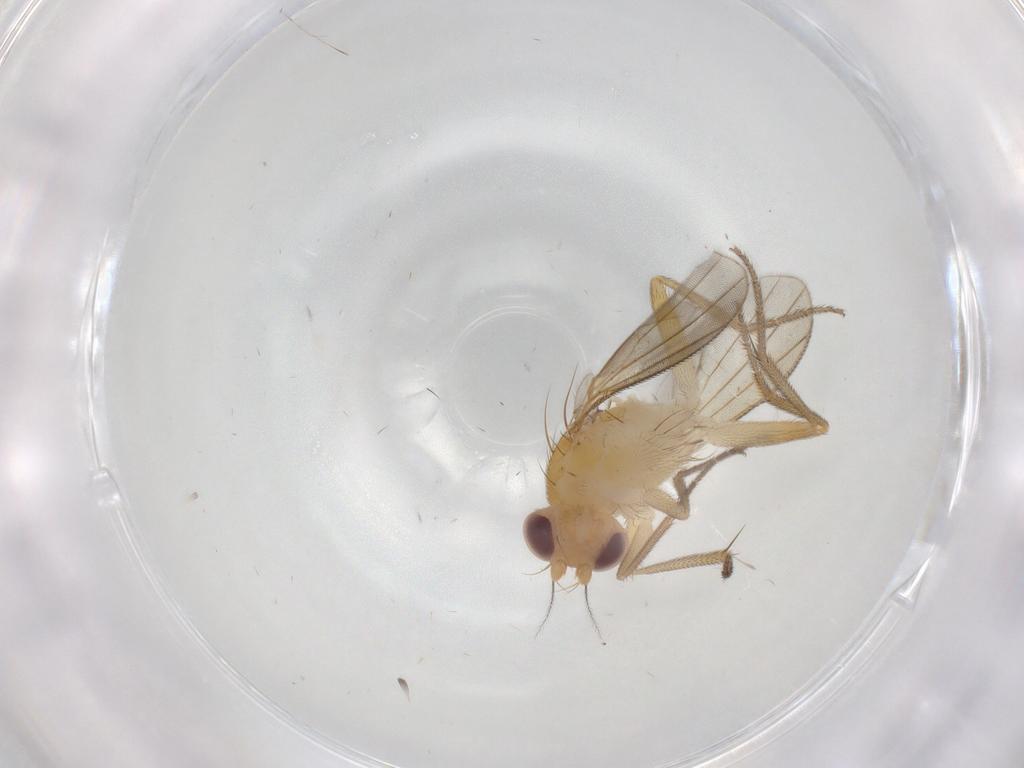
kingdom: Animalia
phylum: Arthropoda
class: Insecta
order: Diptera
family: Clusiidae
